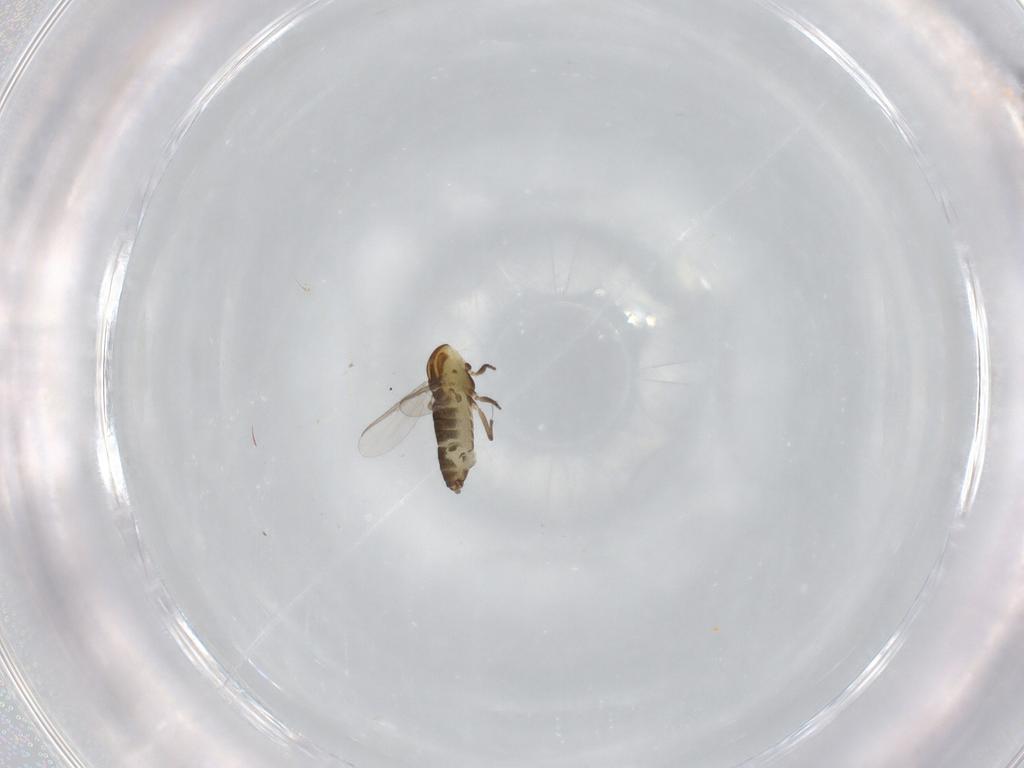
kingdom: Animalia
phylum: Arthropoda
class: Insecta
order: Diptera
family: Chironomidae
